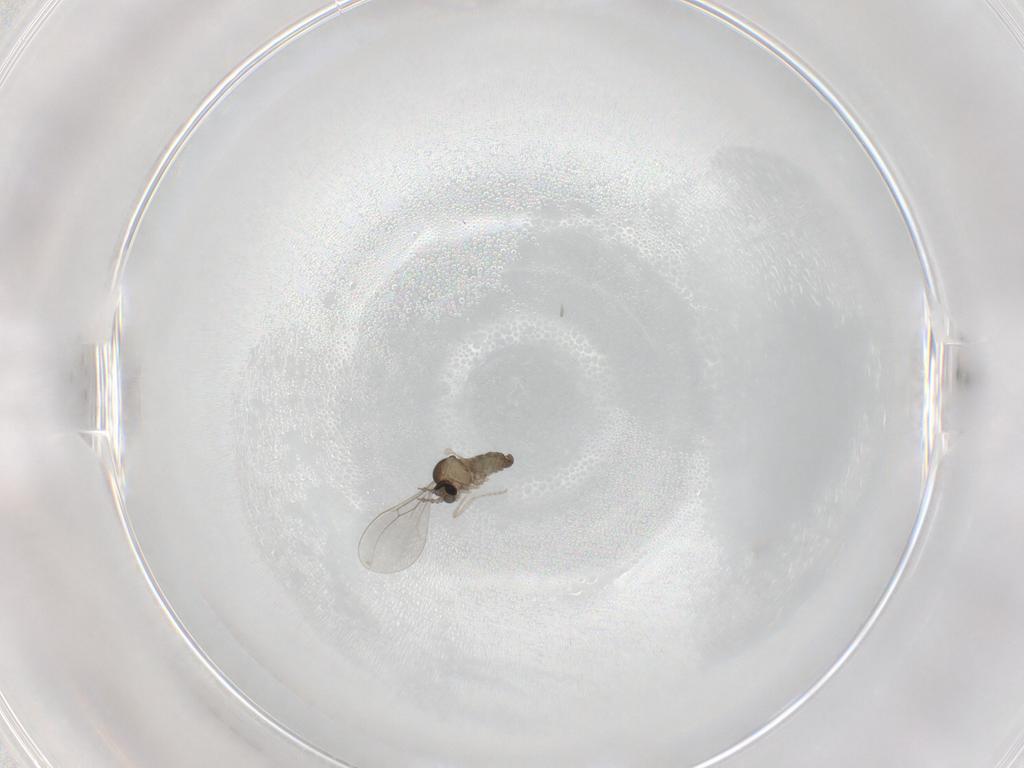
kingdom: Animalia
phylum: Arthropoda
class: Insecta
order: Diptera
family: Cecidomyiidae
